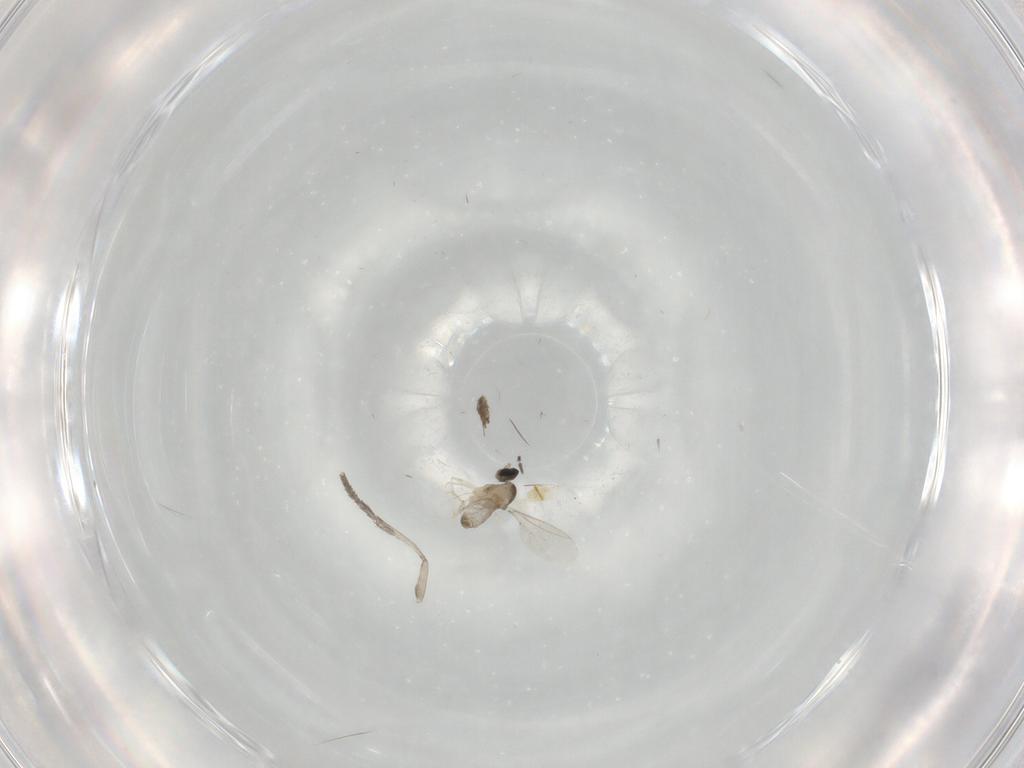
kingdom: Animalia
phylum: Arthropoda
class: Insecta
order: Diptera
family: Cecidomyiidae
